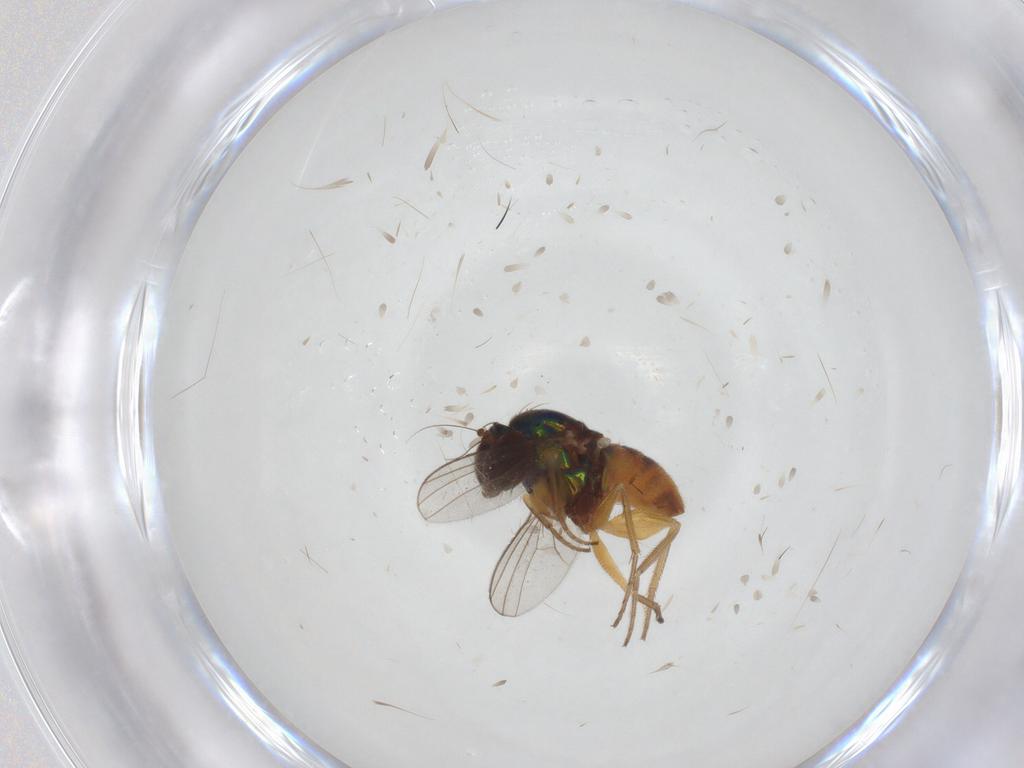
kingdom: Animalia
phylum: Arthropoda
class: Insecta
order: Diptera
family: Dolichopodidae
